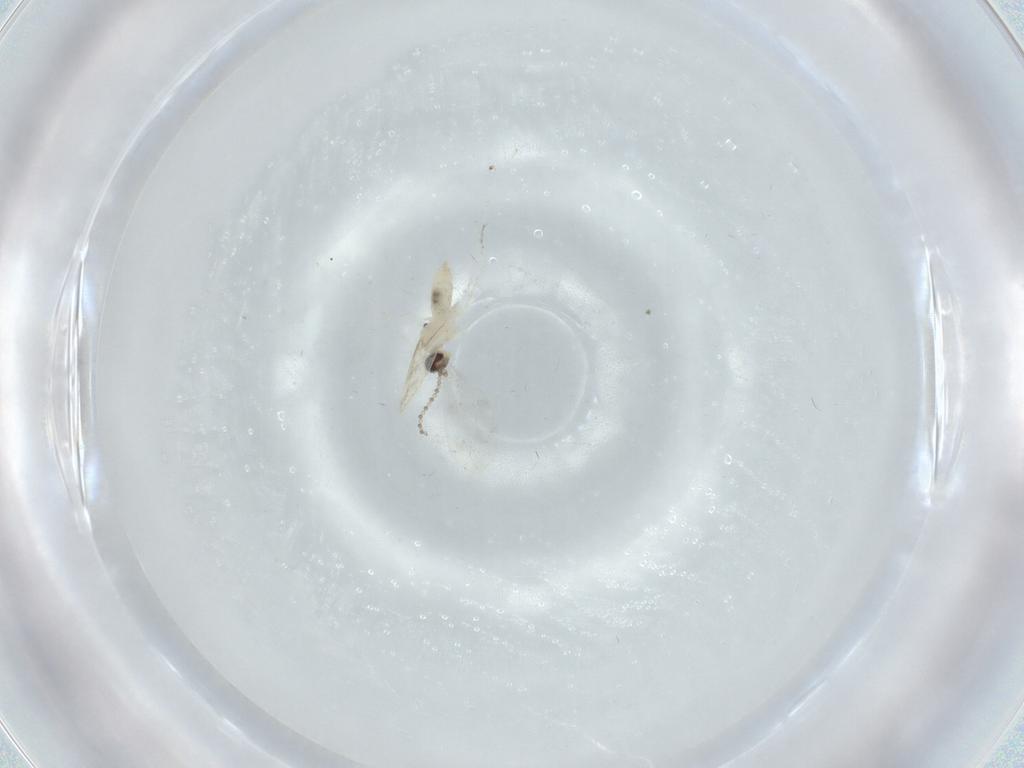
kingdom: Animalia
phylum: Arthropoda
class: Insecta
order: Diptera
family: Cecidomyiidae
